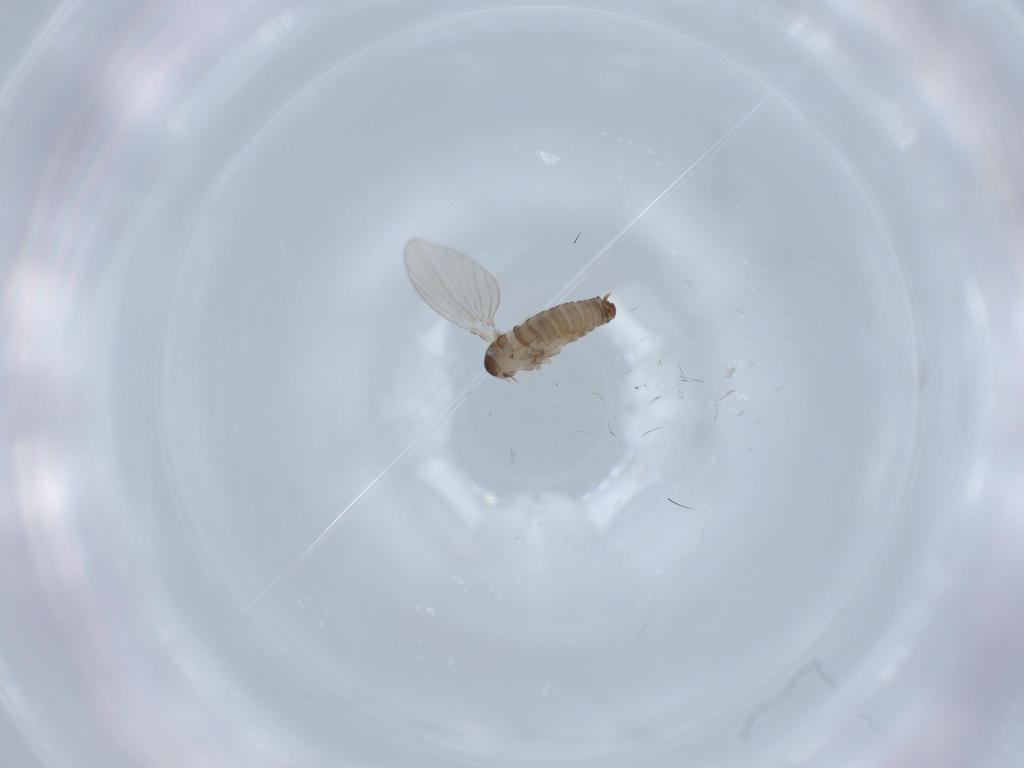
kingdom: Animalia
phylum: Arthropoda
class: Insecta
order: Diptera
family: Psychodidae
